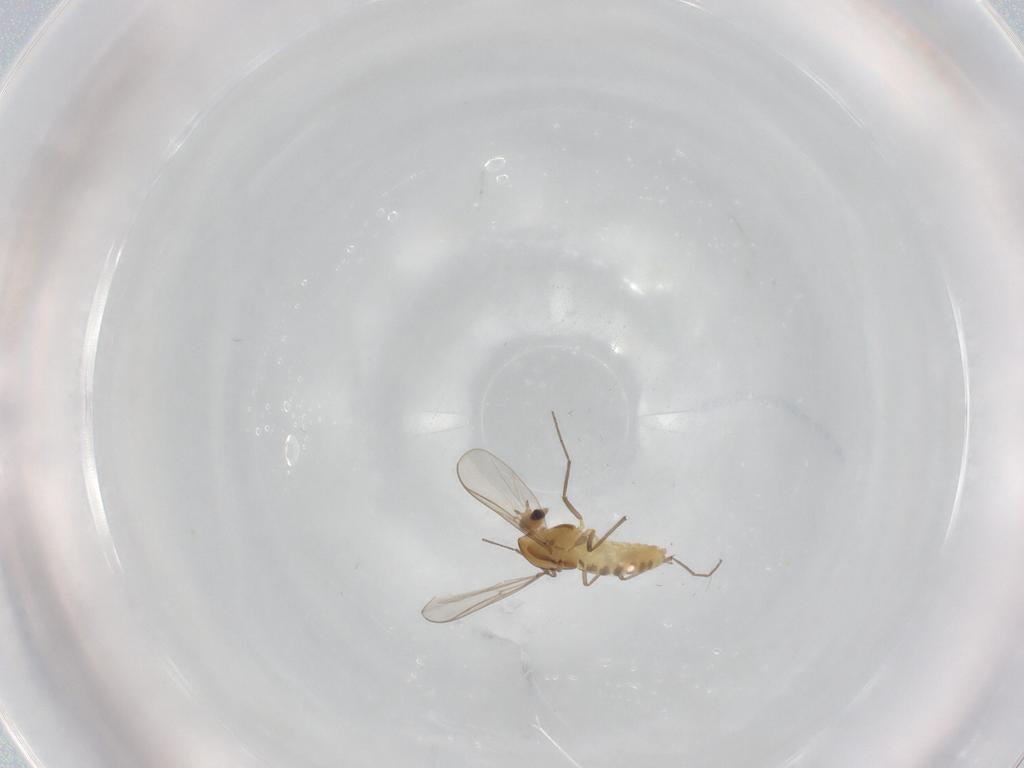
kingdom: Animalia
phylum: Arthropoda
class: Insecta
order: Diptera
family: Chironomidae
